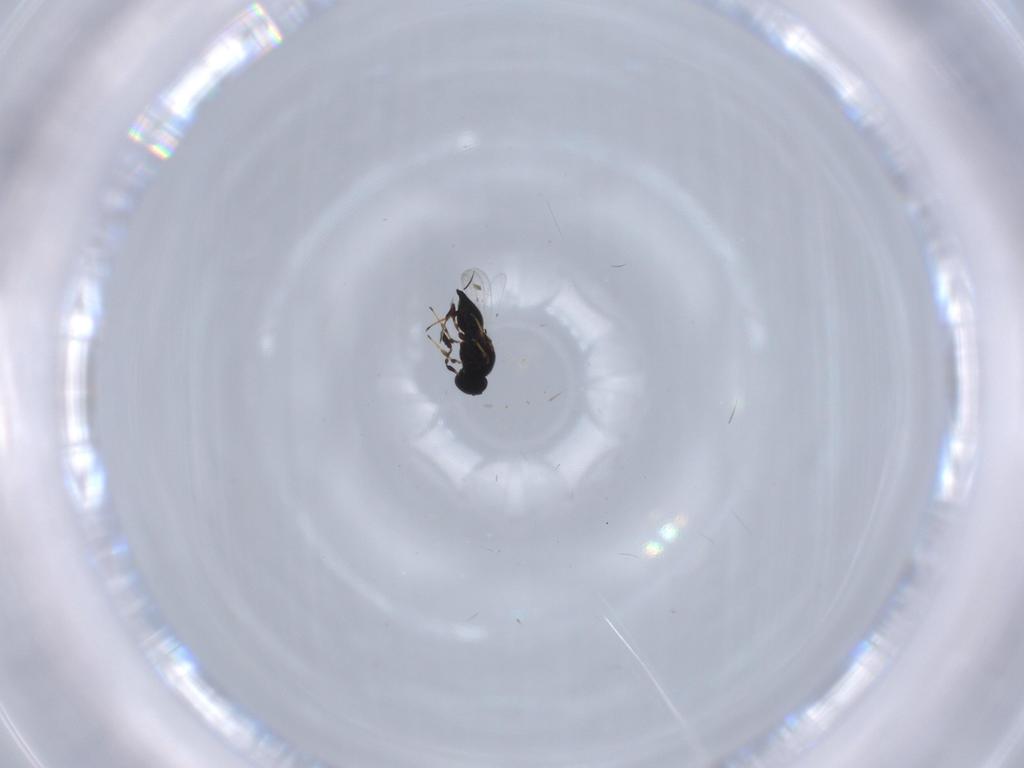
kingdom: Animalia
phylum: Arthropoda
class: Insecta
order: Hymenoptera
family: Platygastridae
